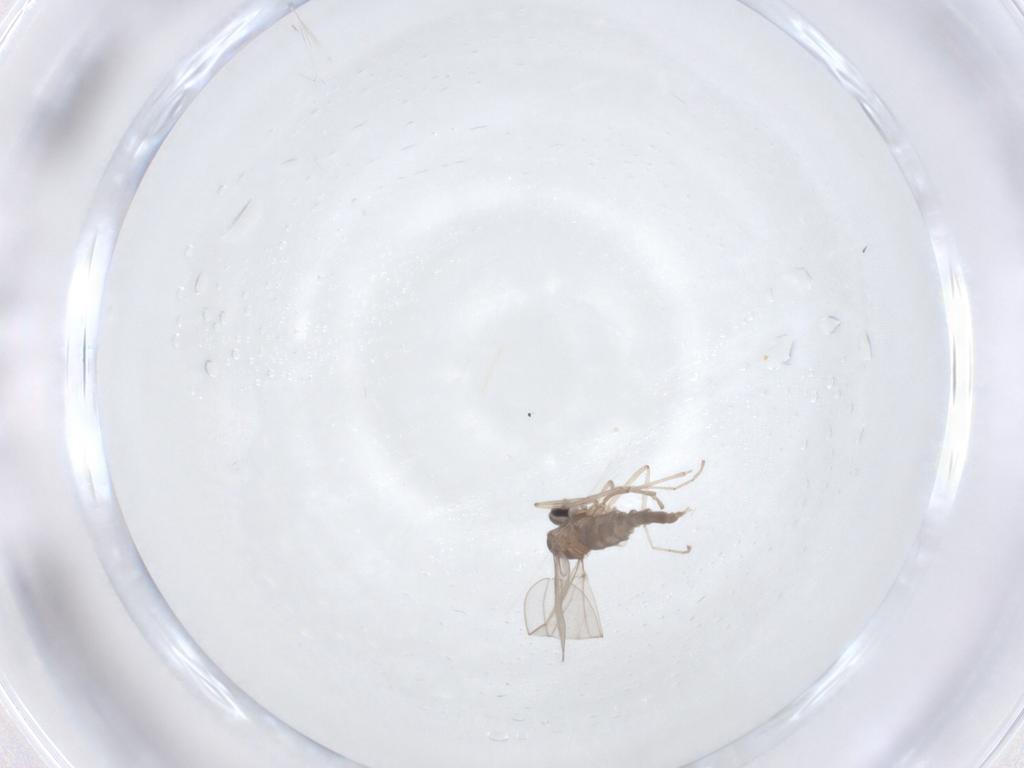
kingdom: Animalia
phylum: Arthropoda
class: Insecta
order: Diptera
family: Cecidomyiidae
